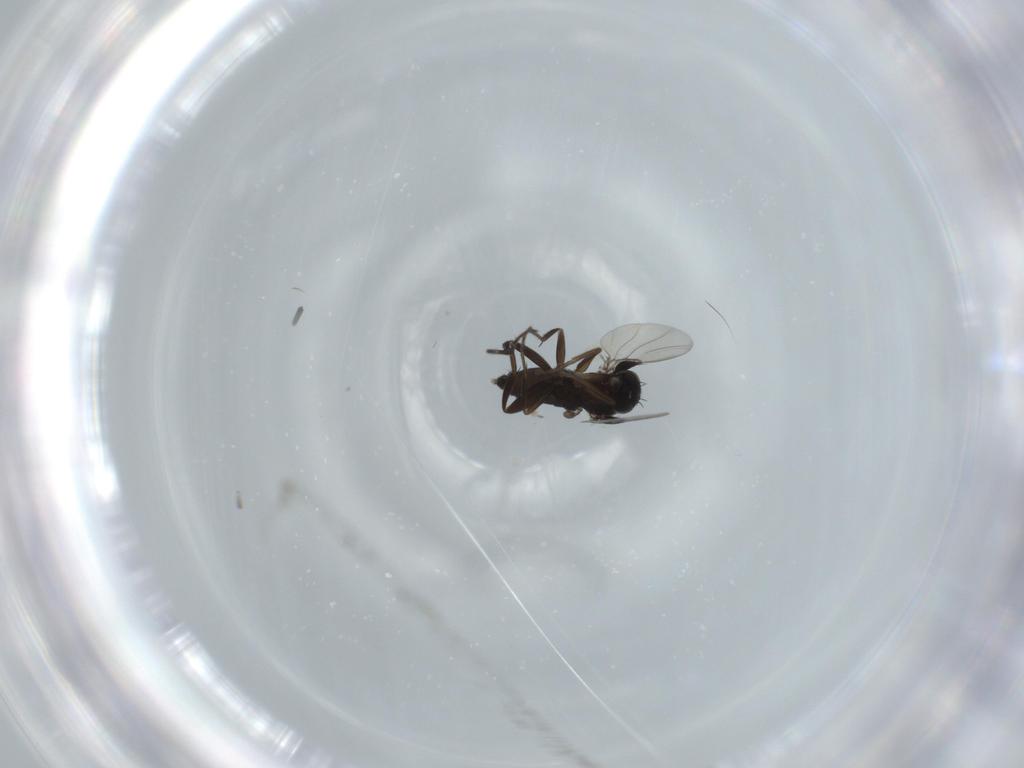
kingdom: Animalia
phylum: Arthropoda
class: Insecta
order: Diptera
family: Phoridae
